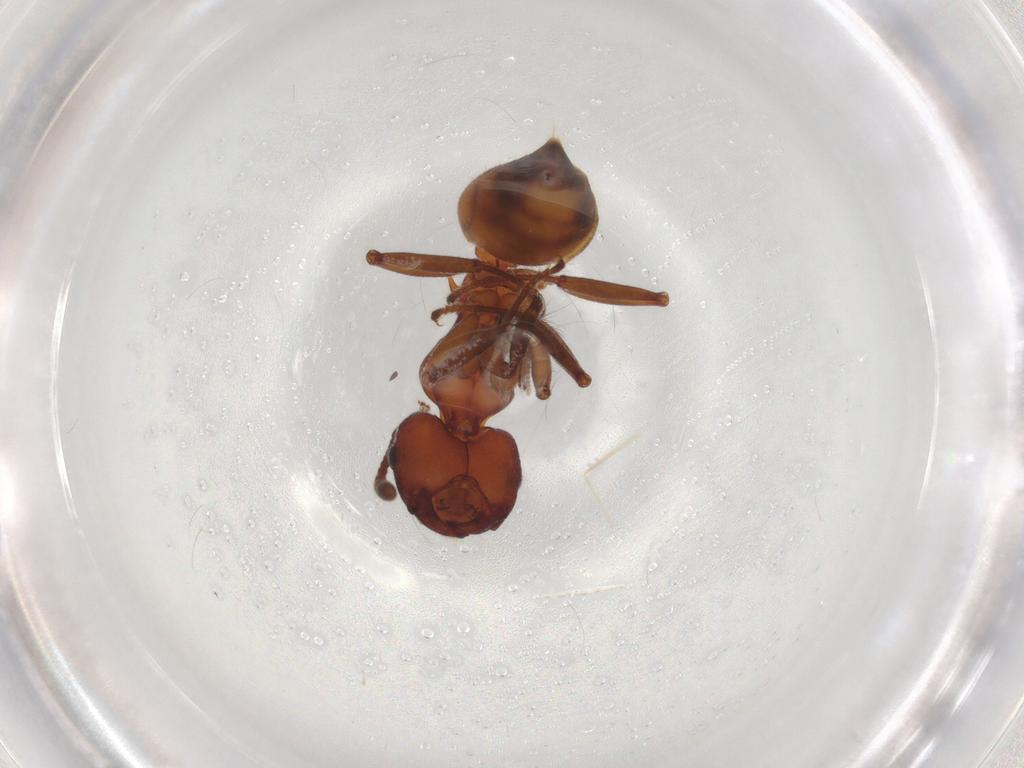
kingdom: Animalia
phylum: Arthropoda
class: Insecta
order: Hymenoptera
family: Formicidae
